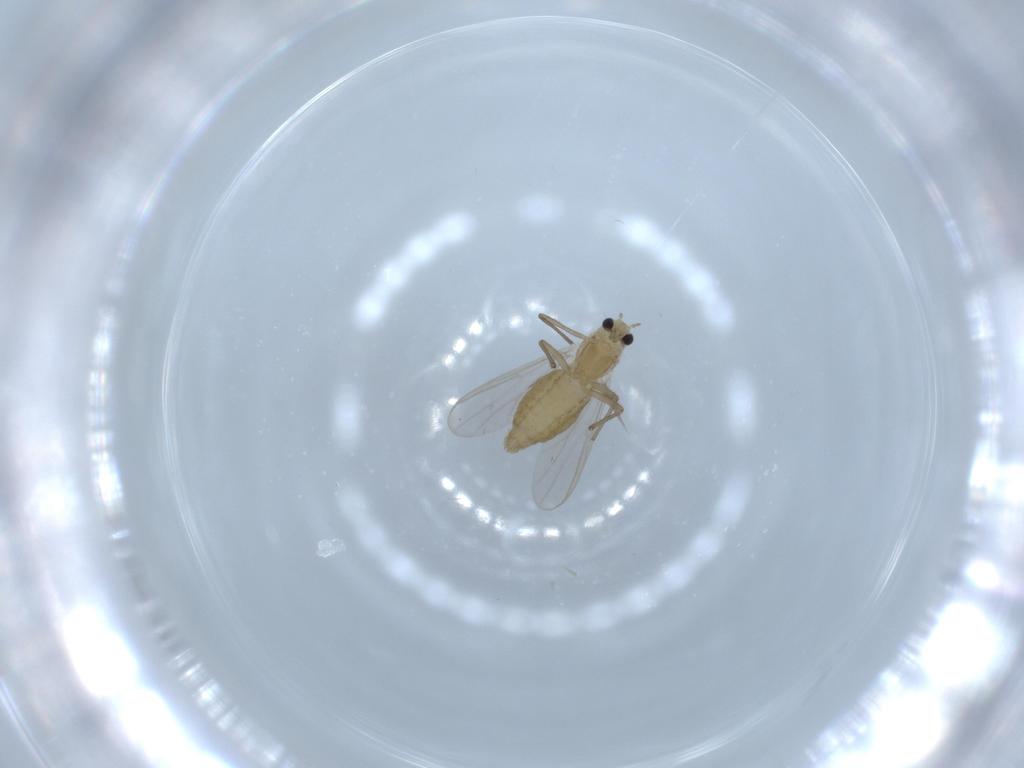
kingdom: Animalia
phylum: Arthropoda
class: Insecta
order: Diptera
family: Chironomidae
